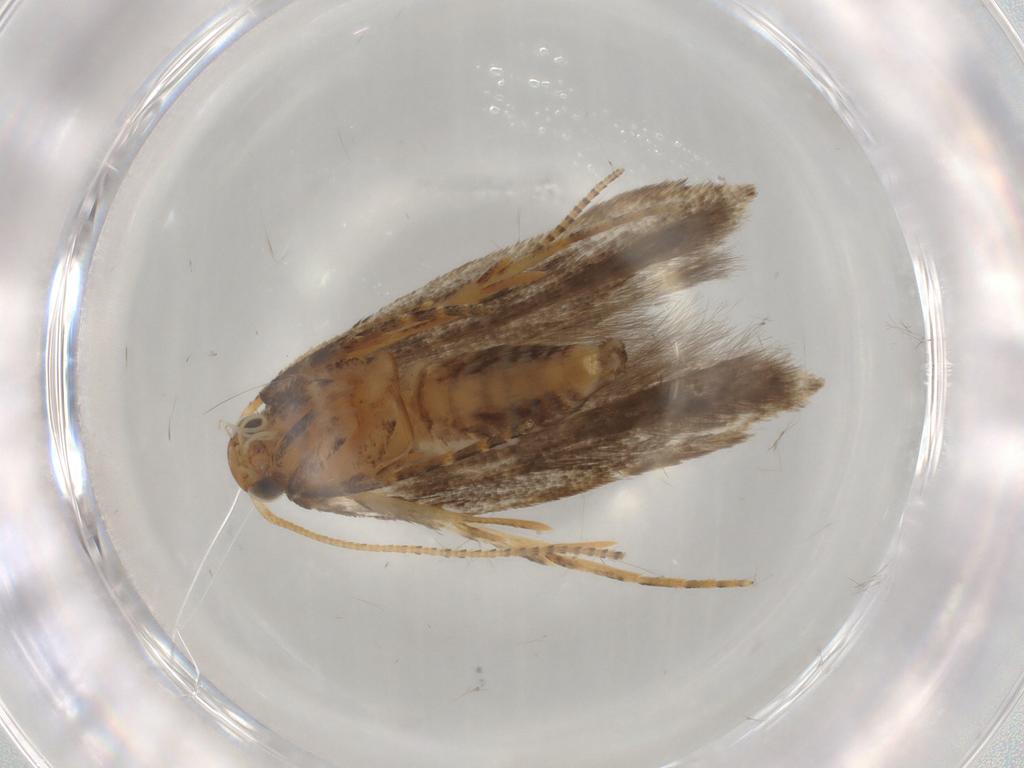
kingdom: Animalia
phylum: Arthropoda
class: Insecta
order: Lepidoptera
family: Gelechiidae
